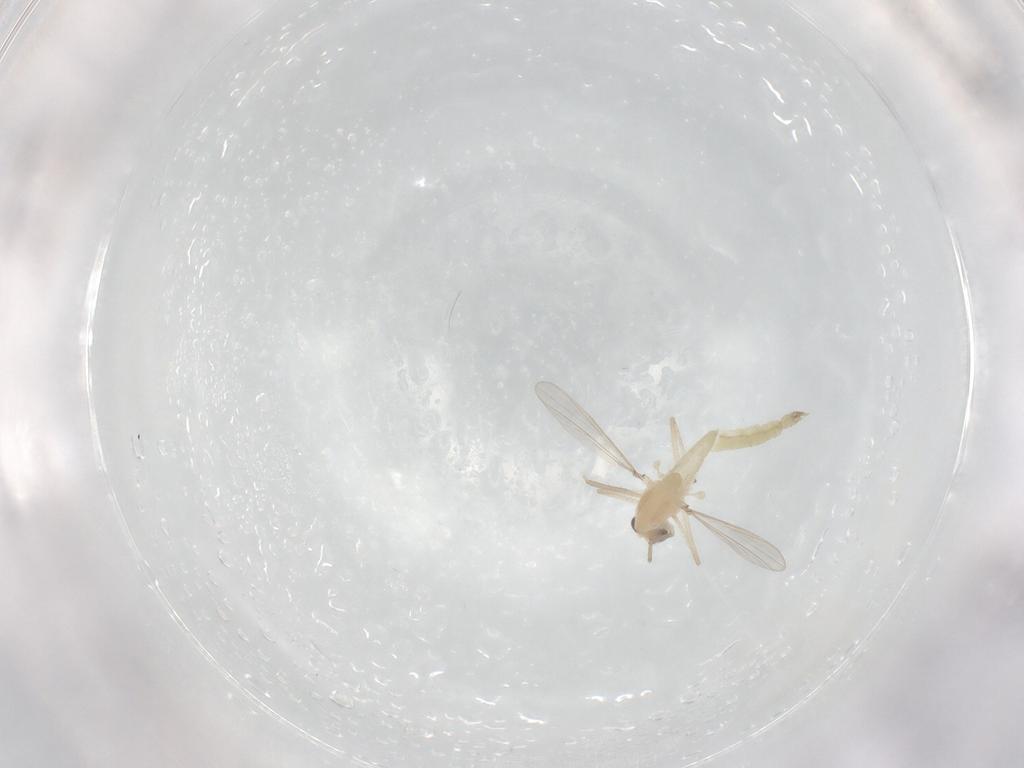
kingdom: Animalia
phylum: Arthropoda
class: Insecta
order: Diptera
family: Chironomidae
